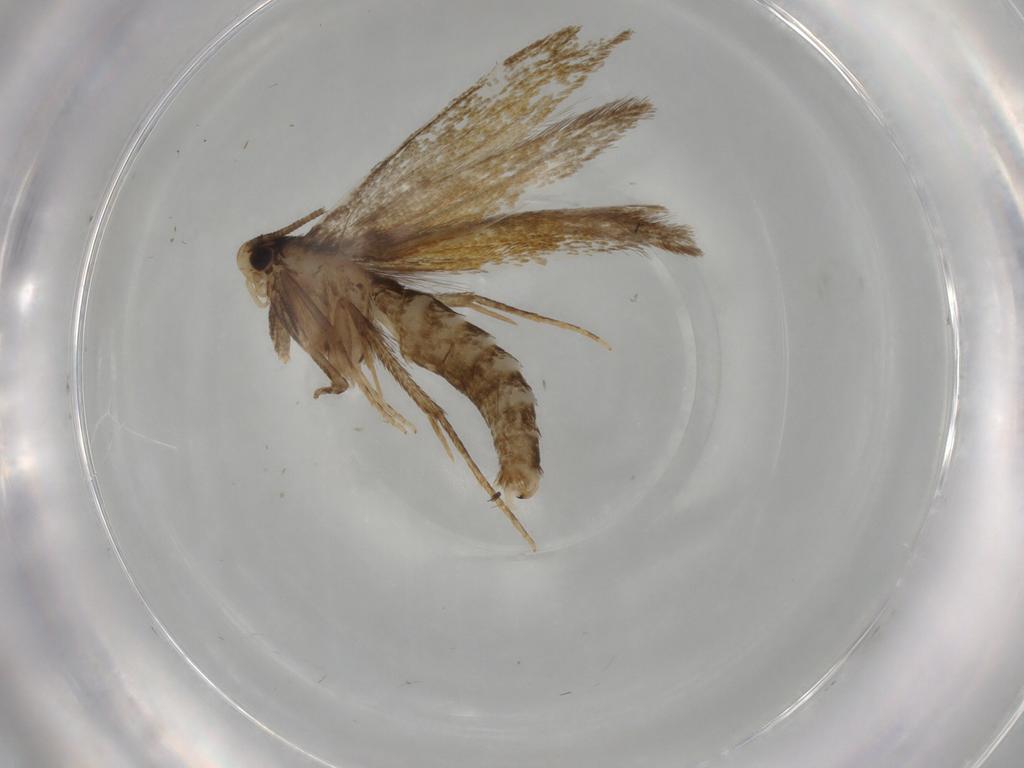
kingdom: Animalia
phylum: Arthropoda
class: Insecta
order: Lepidoptera
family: Tineidae
